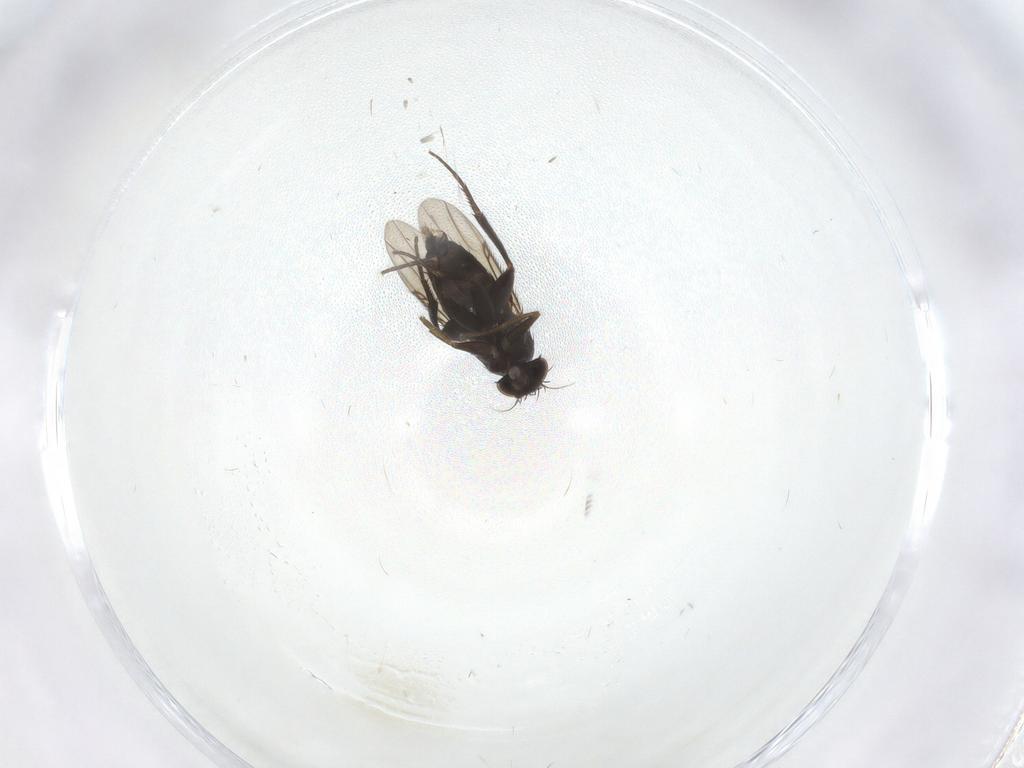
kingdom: Animalia
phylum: Arthropoda
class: Insecta
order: Diptera
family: Phoridae
